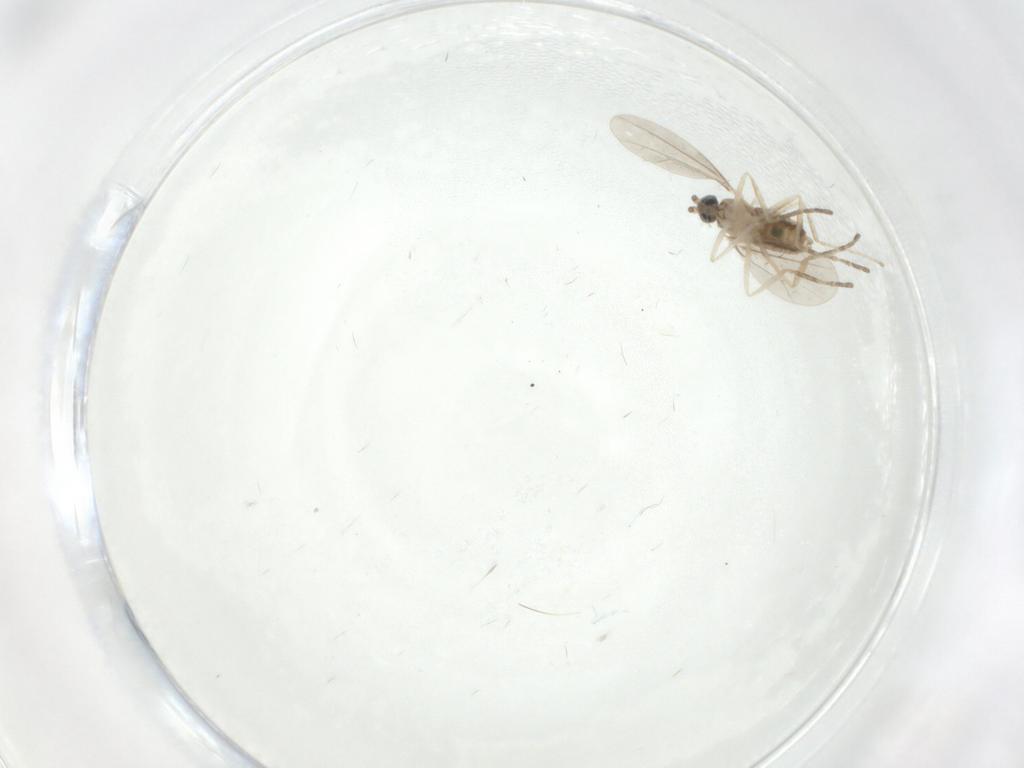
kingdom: Animalia
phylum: Arthropoda
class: Insecta
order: Diptera
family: Cecidomyiidae
